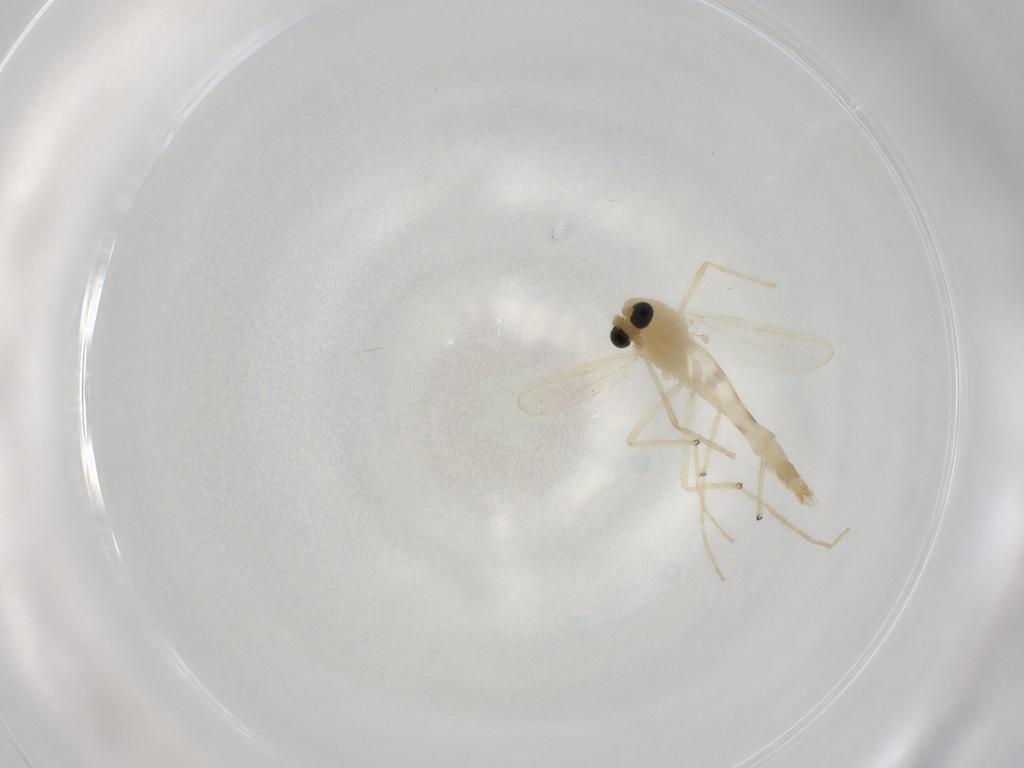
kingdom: Animalia
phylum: Arthropoda
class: Insecta
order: Diptera
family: Chironomidae
